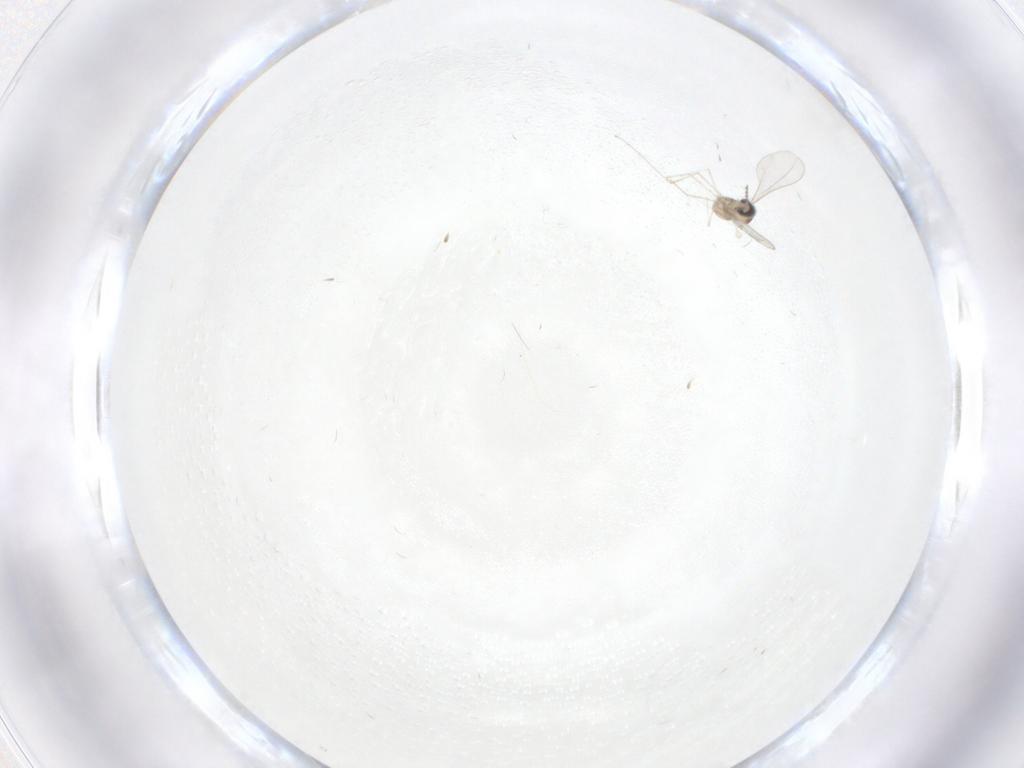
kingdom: Animalia
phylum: Arthropoda
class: Insecta
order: Diptera
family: Cecidomyiidae
